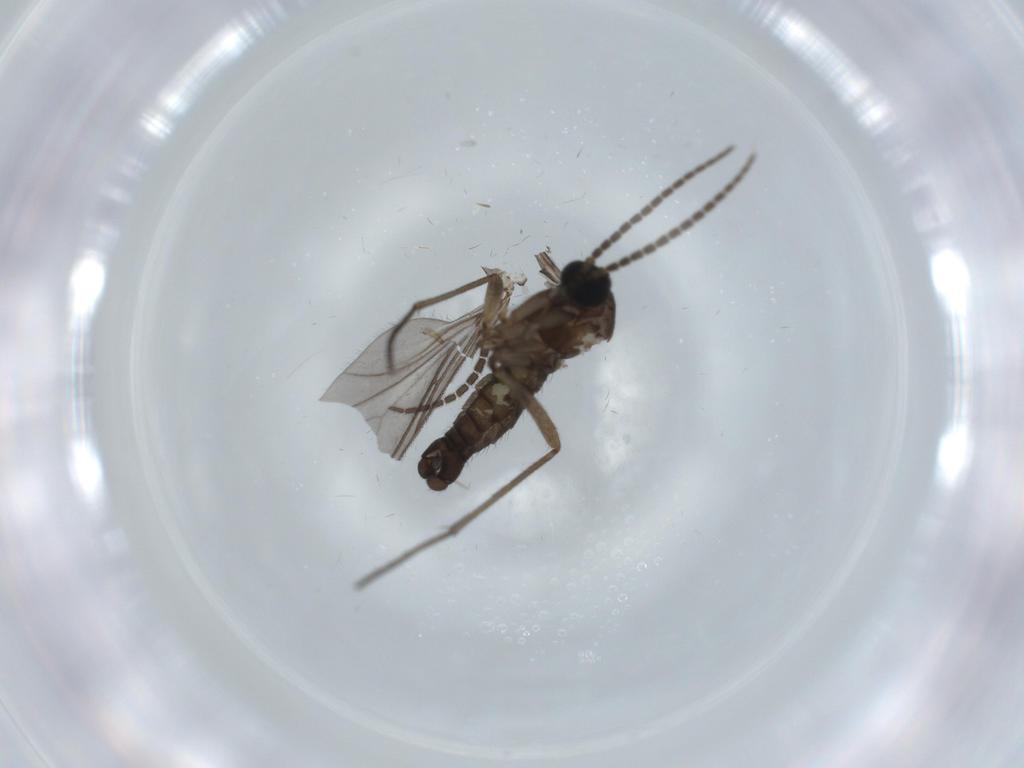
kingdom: Animalia
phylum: Arthropoda
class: Insecta
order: Diptera
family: Sciaridae
